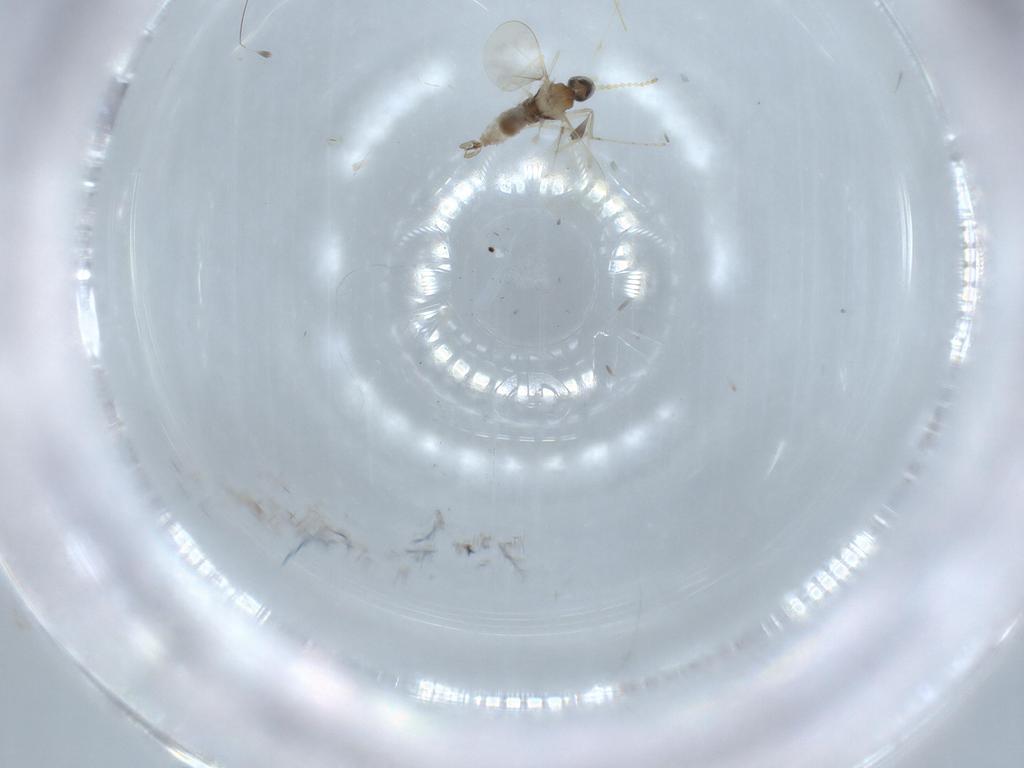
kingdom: Animalia
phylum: Arthropoda
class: Insecta
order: Diptera
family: Cecidomyiidae
